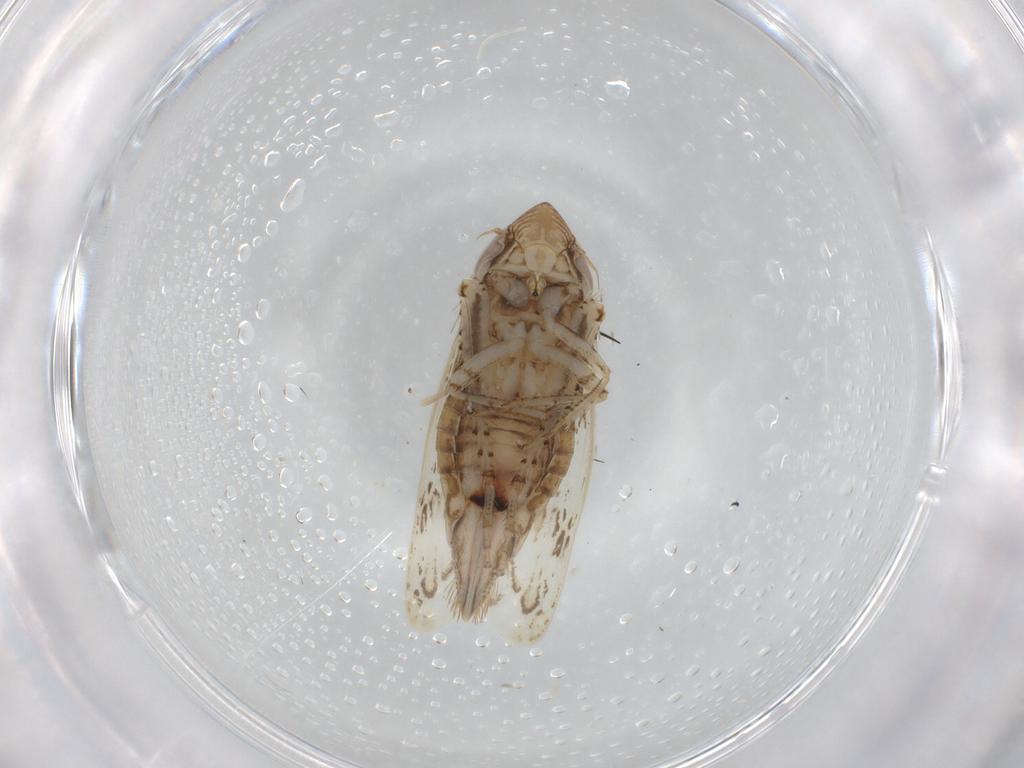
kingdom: Animalia
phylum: Arthropoda
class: Insecta
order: Hemiptera
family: Cicadellidae
